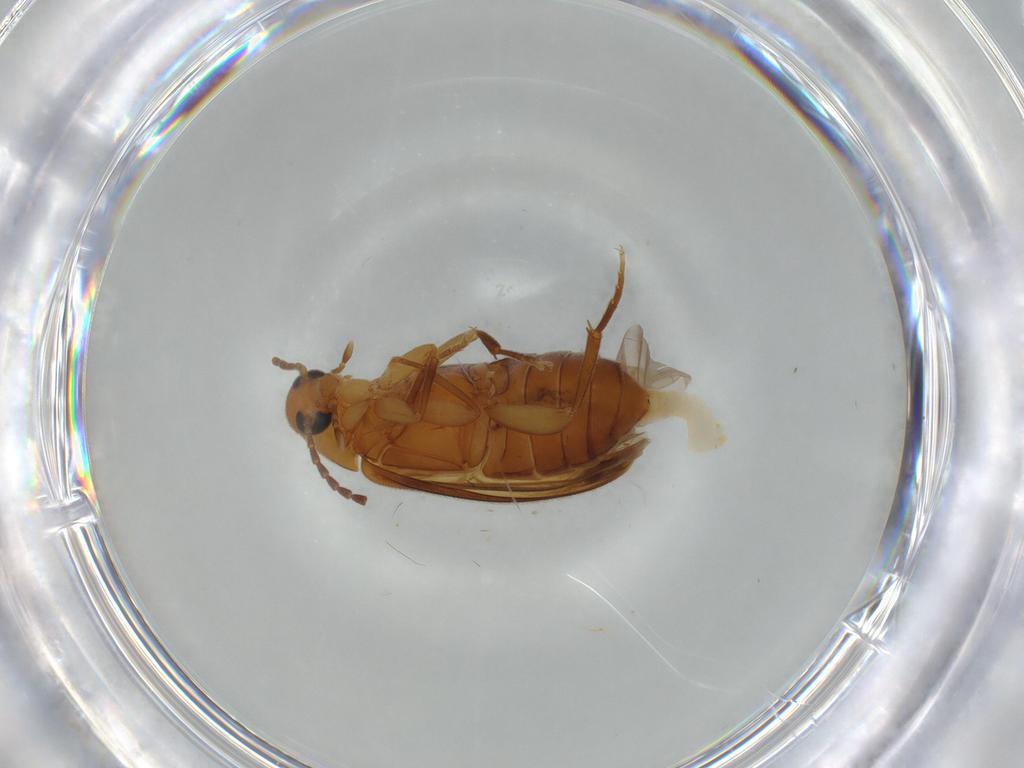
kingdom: Animalia
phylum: Arthropoda
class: Insecta
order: Coleoptera
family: Scraptiidae
